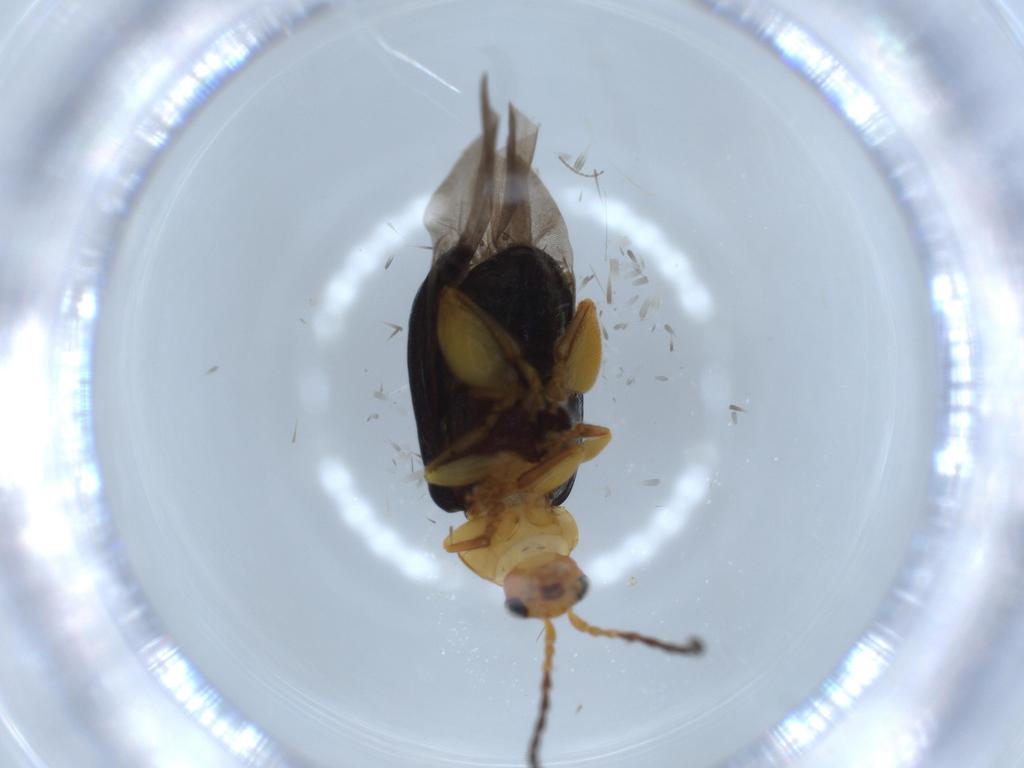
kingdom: Animalia
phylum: Arthropoda
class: Insecta
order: Coleoptera
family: Chrysomelidae
